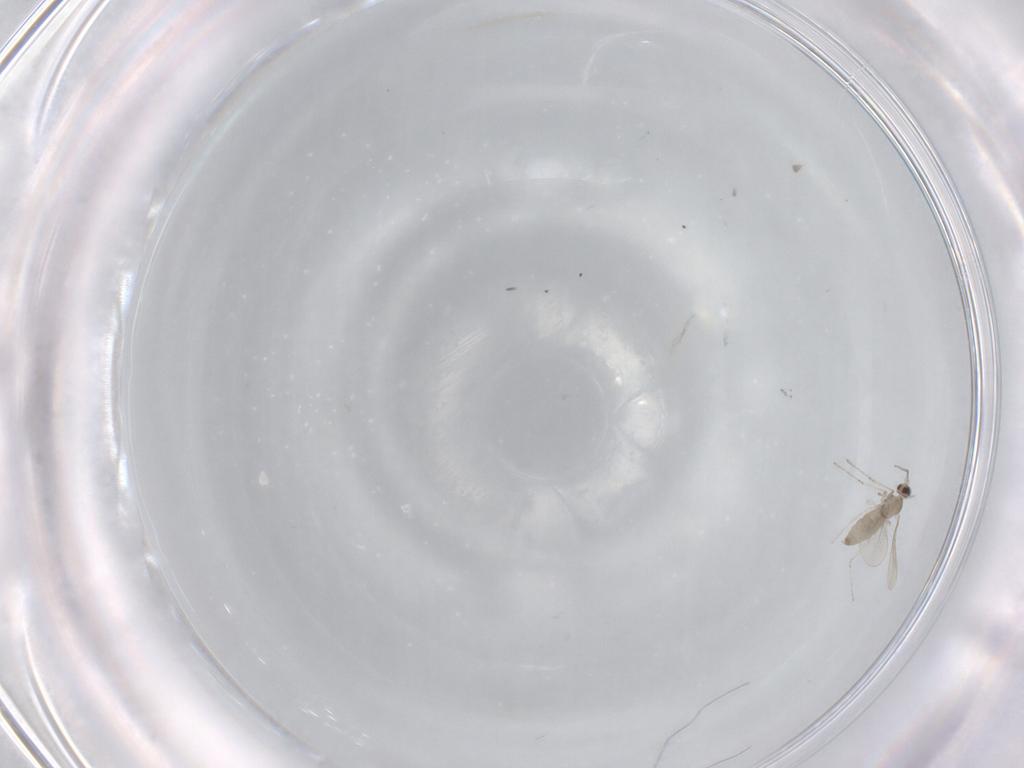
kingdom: Animalia
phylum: Arthropoda
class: Insecta
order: Diptera
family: Cecidomyiidae
